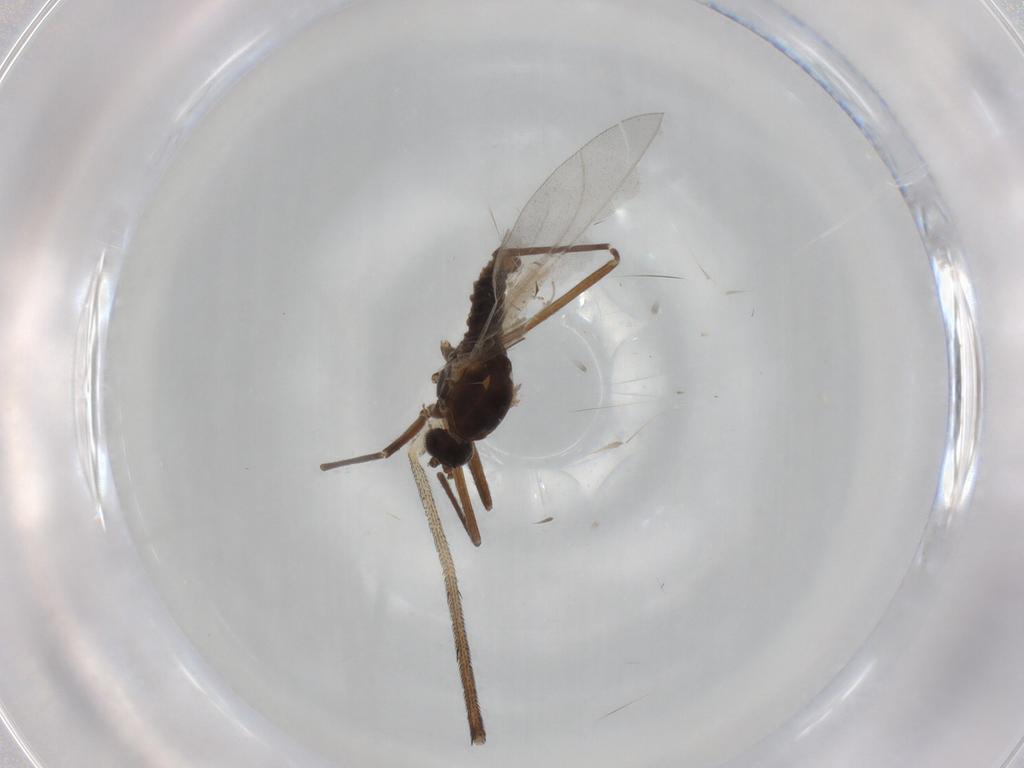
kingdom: Animalia
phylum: Arthropoda
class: Insecta
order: Diptera
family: Cecidomyiidae
